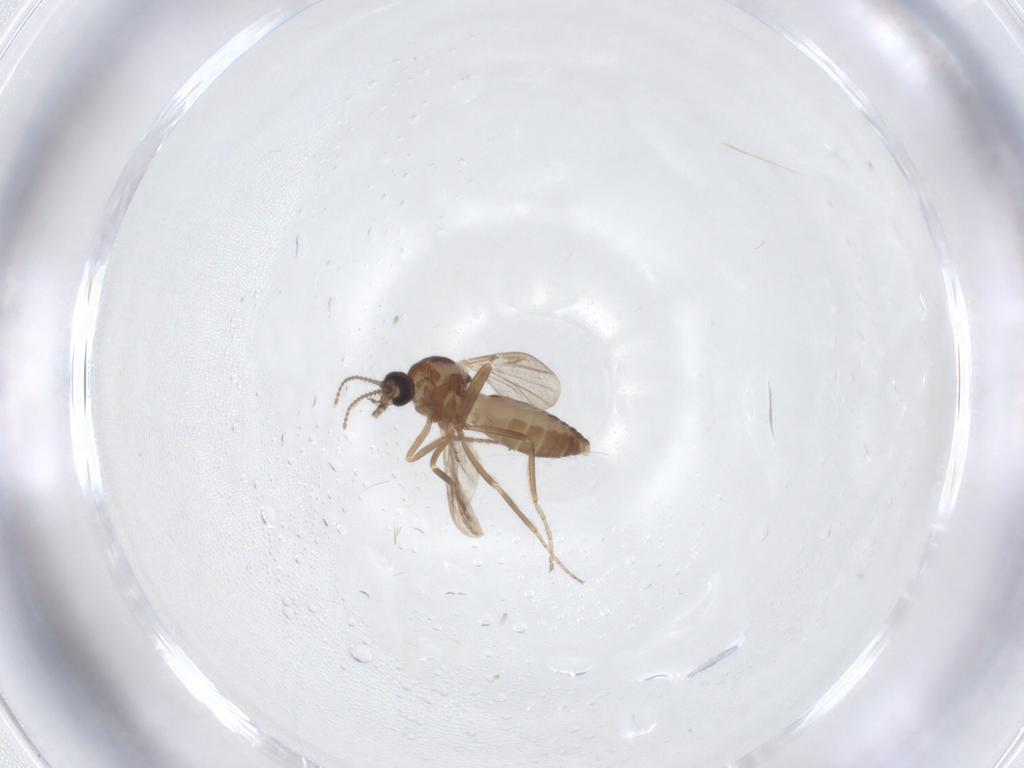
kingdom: Animalia
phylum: Arthropoda
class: Insecta
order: Diptera
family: Ceratopogonidae
